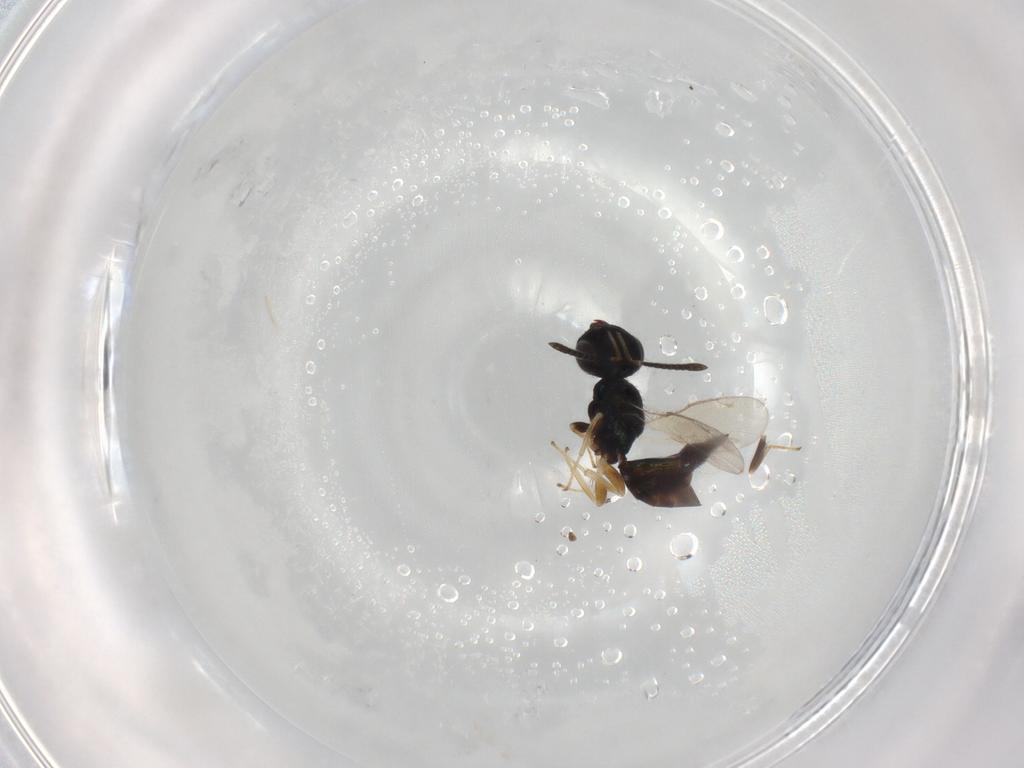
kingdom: Animalia
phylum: Arthropoda
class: Insecta
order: Hymenoptera
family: Pteromalidae
